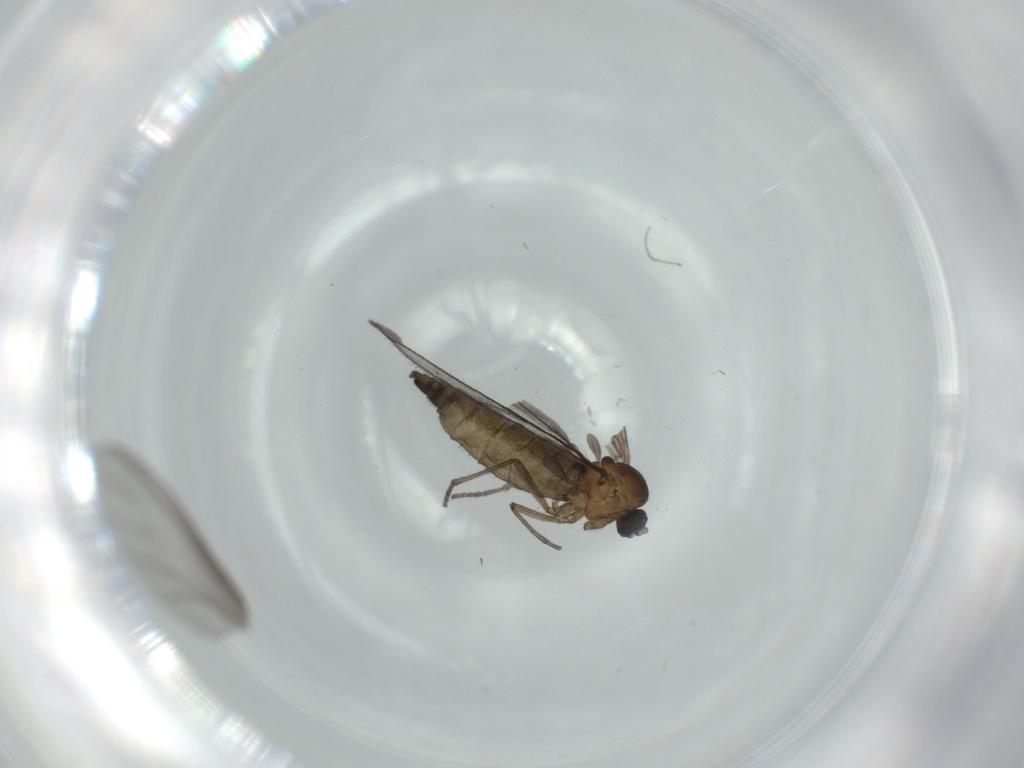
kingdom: Animalia
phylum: Arthropoda
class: Insecta
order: Diptera
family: Sciaridae
